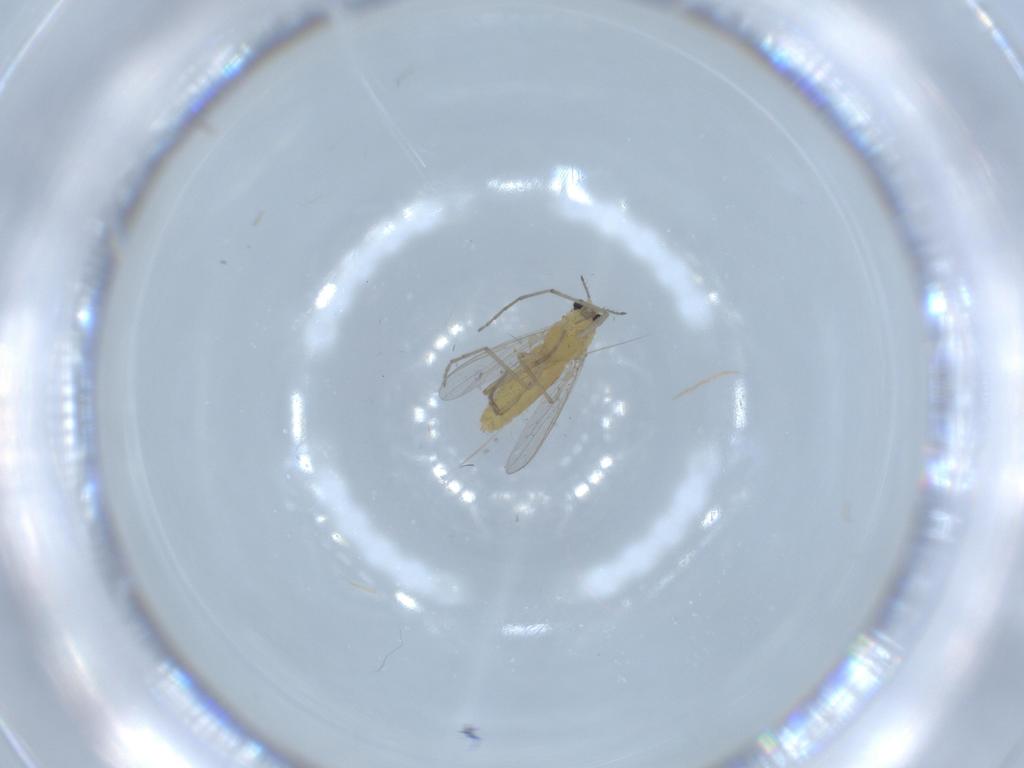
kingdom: Animalia
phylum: Arthropoda
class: Insecta
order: Diptera
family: Chironomidae
